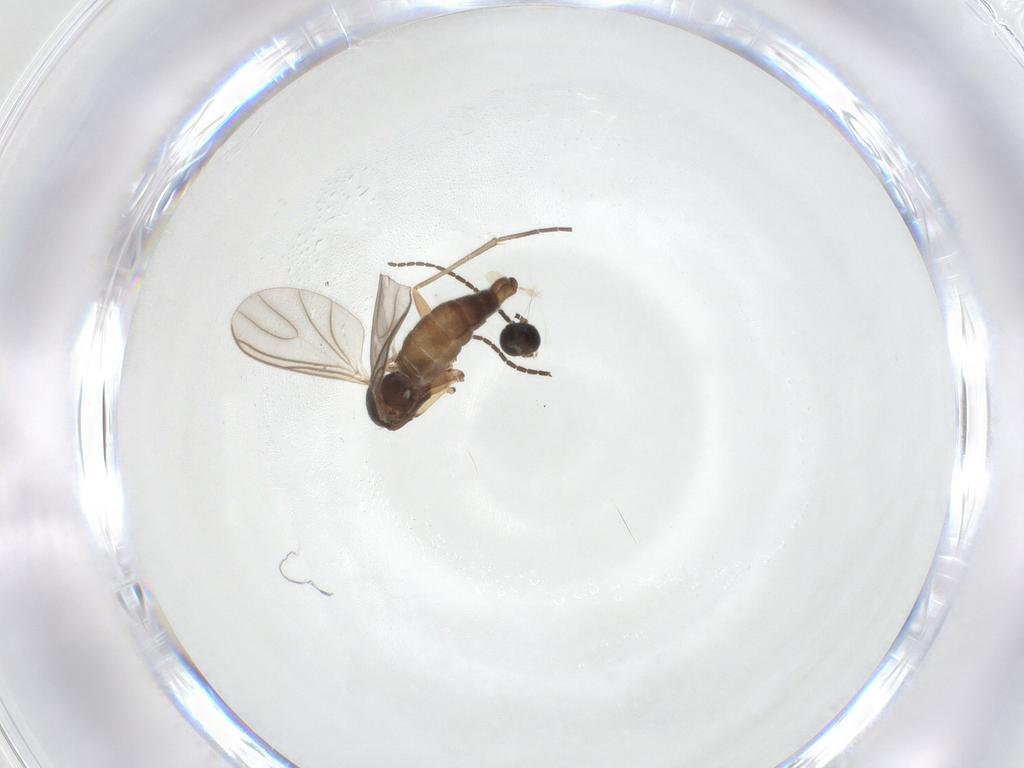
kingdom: Animalia
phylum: Arthropoda
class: Insecta
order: Diptera
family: Sciaridae
